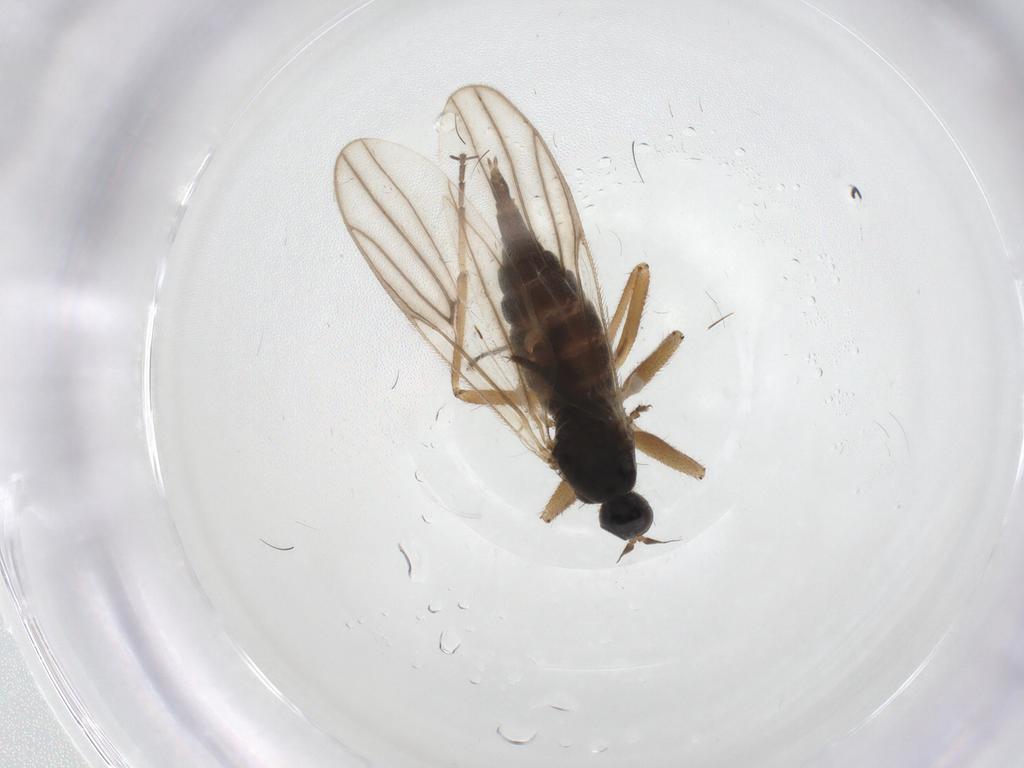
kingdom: Animalia
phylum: Arthropoda
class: Insecta
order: Diptera
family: Hybotidae
